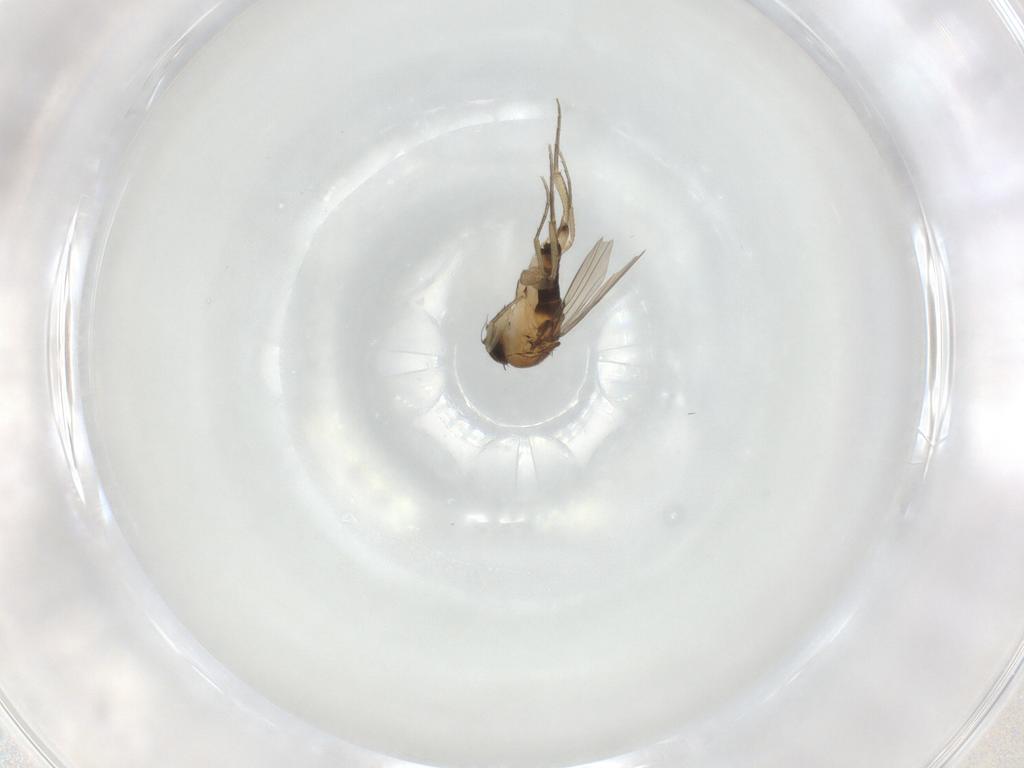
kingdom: Animalia
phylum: Arthropoda
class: Insecta
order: Diptera
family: Phoridae
